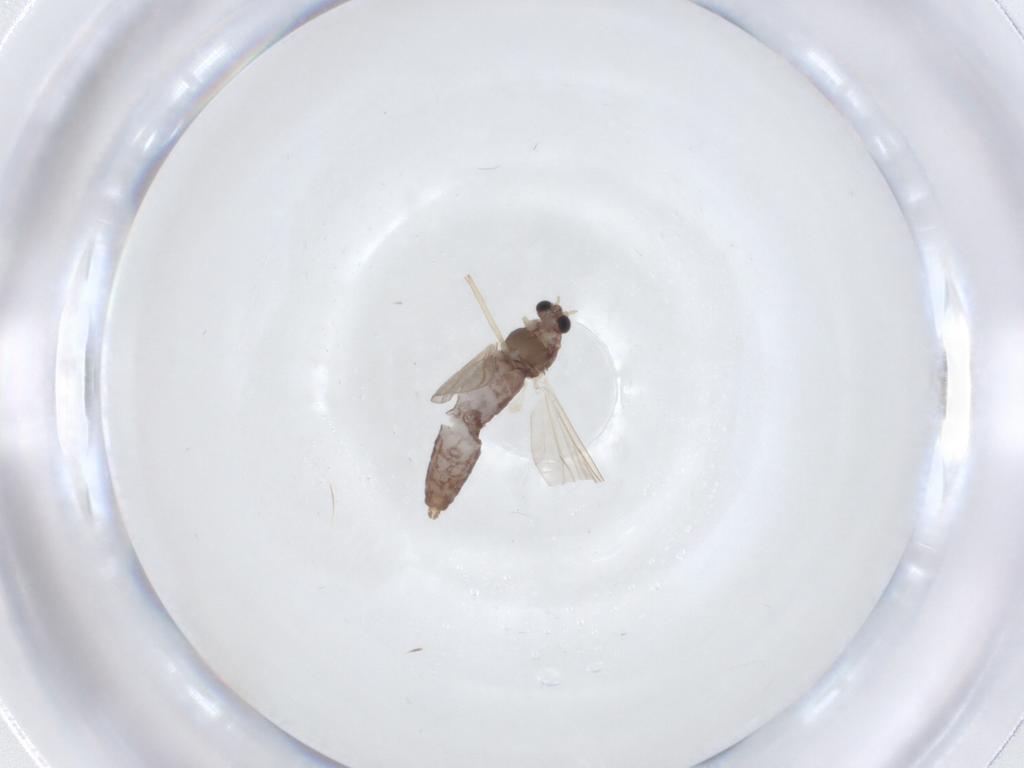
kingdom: Animalia
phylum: Arthropoda
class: Insecta
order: Diptera
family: Chironomidae
